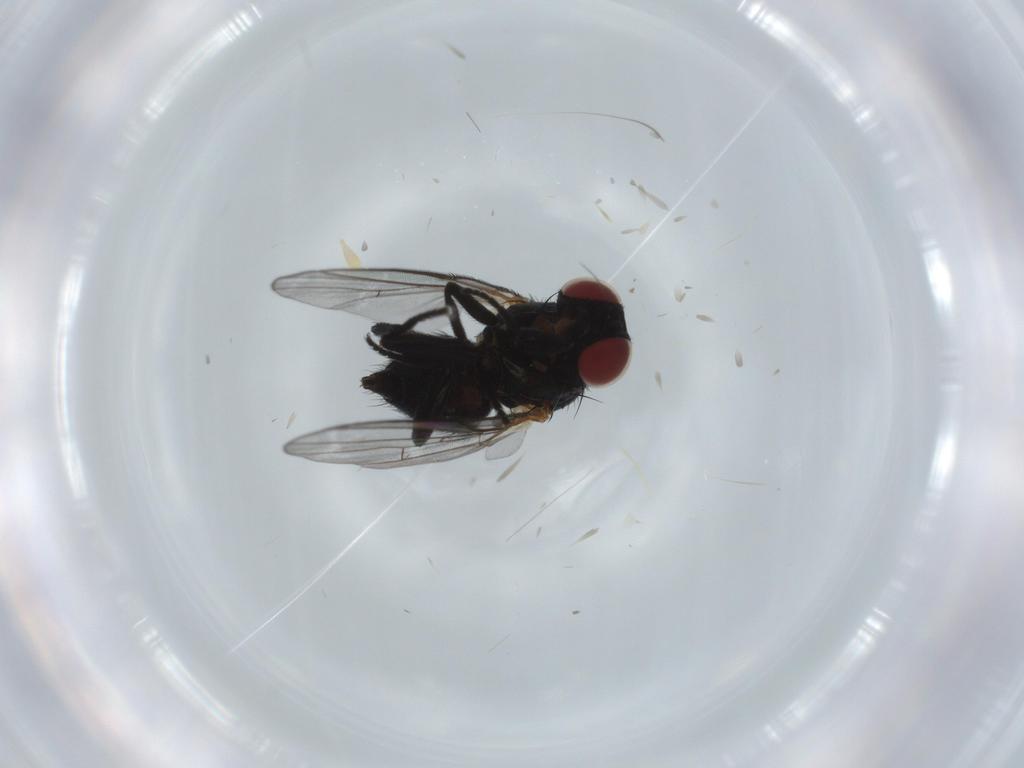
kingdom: Animalia
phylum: Arthropoda
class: Insecta
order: Diptera
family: Agromyzidae
